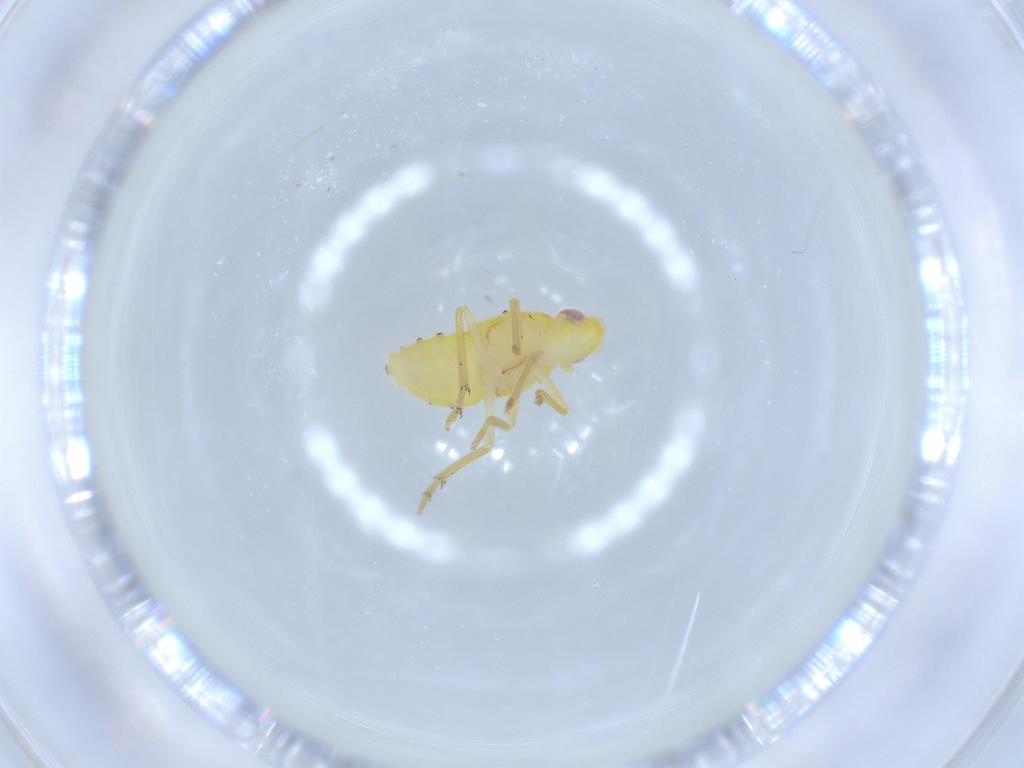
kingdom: Animalia
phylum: Arthropoda
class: Insecta
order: Hemiptera
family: Tropiduchidae
